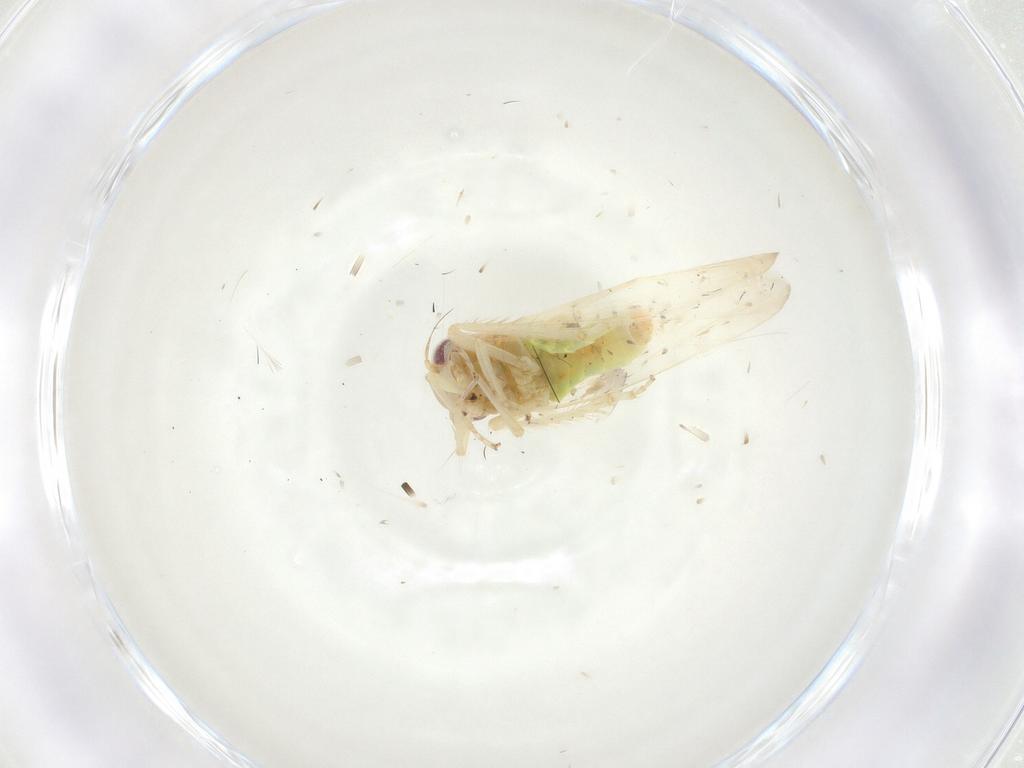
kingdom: Animalia
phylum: Arthropoda
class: Insecta
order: Hemiptera
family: Cicadellidae
